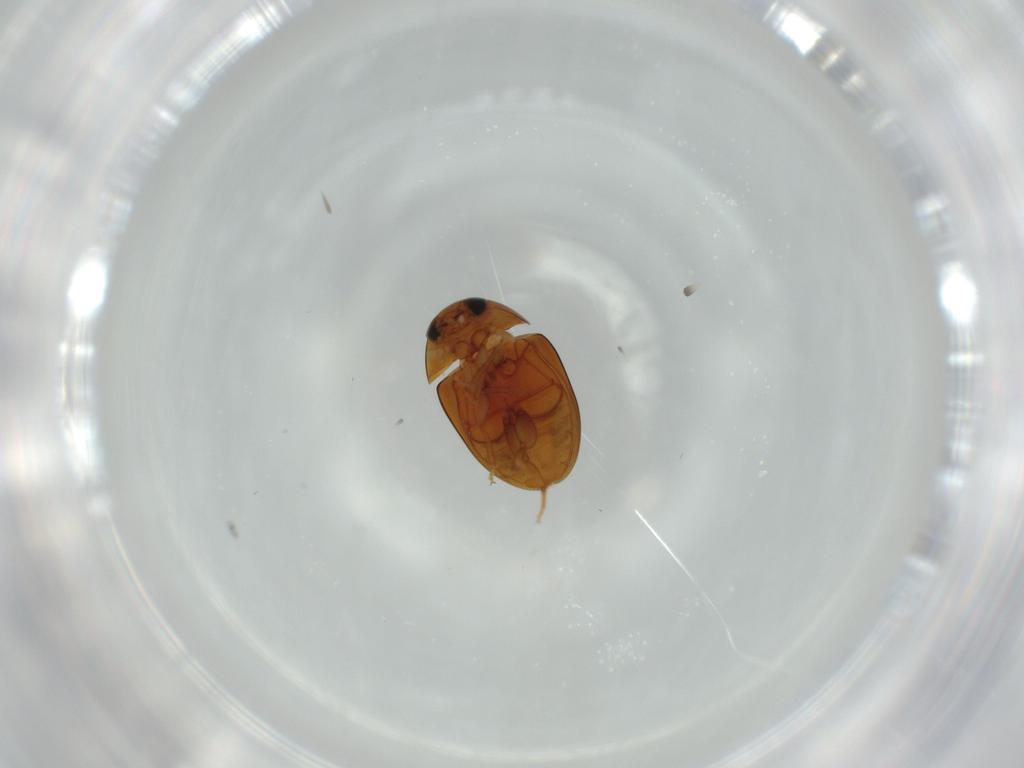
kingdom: Animalia
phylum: Arthropoda
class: Insecta
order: Coleoptera
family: Phalacridae
